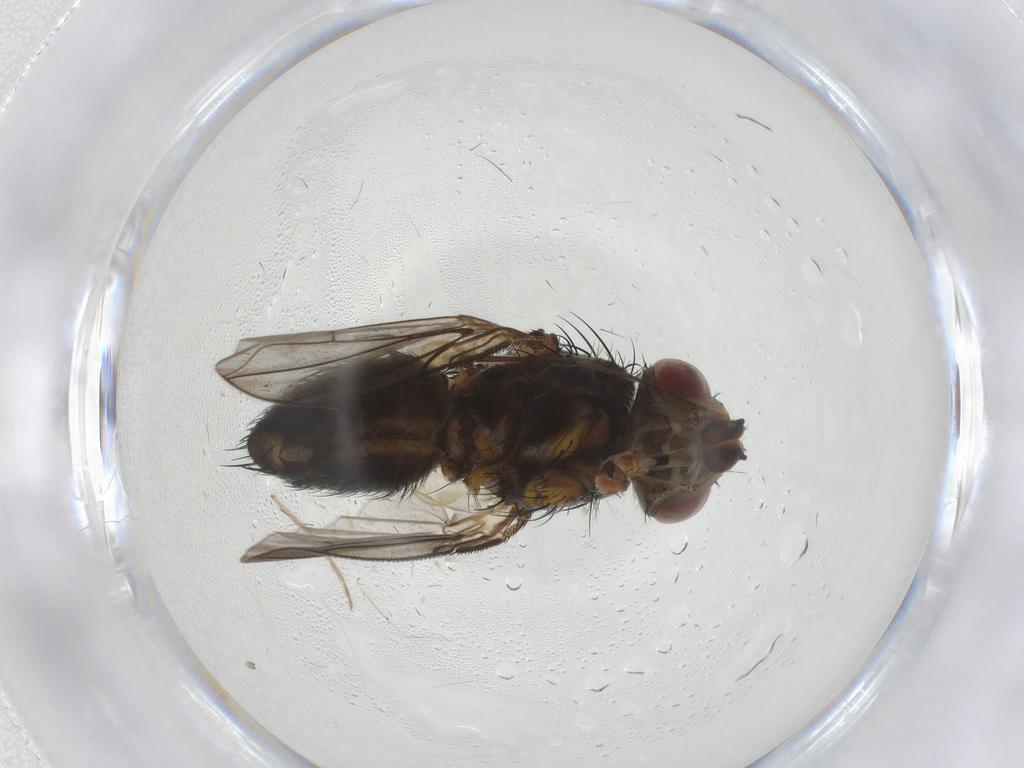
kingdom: Animalia
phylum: Arthropoda
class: Insecta
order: Diptera
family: Tachinidae
